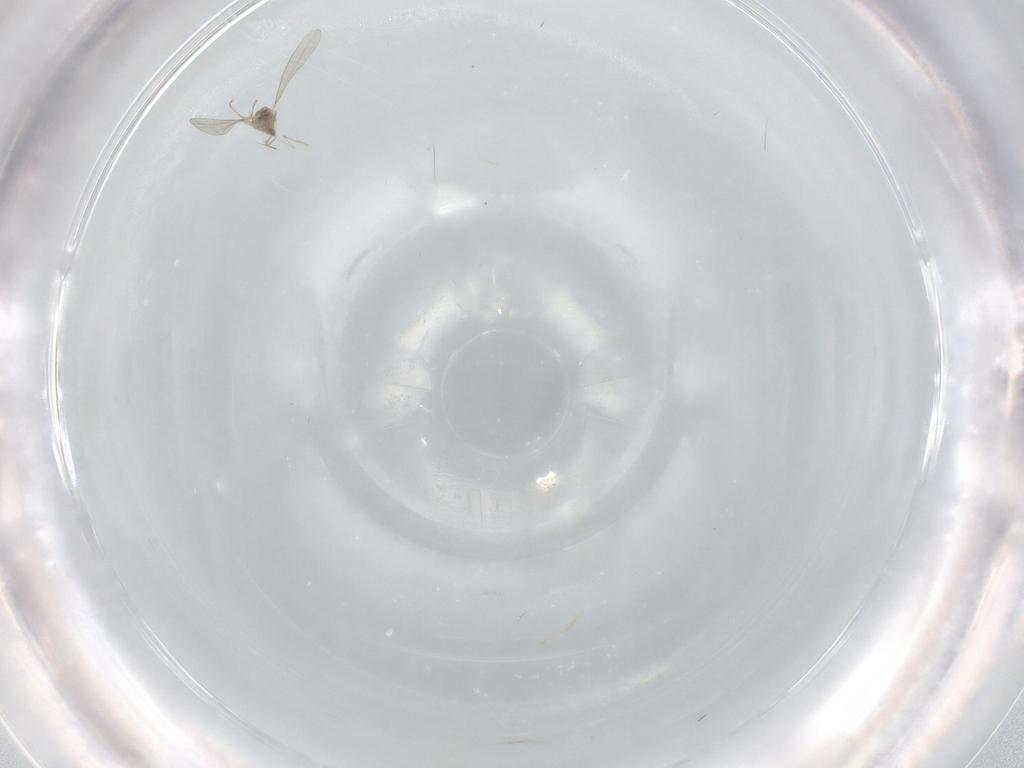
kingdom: Animalia
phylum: Arthropoda
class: Insecta
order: Diptera
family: Cecidomyiidae
